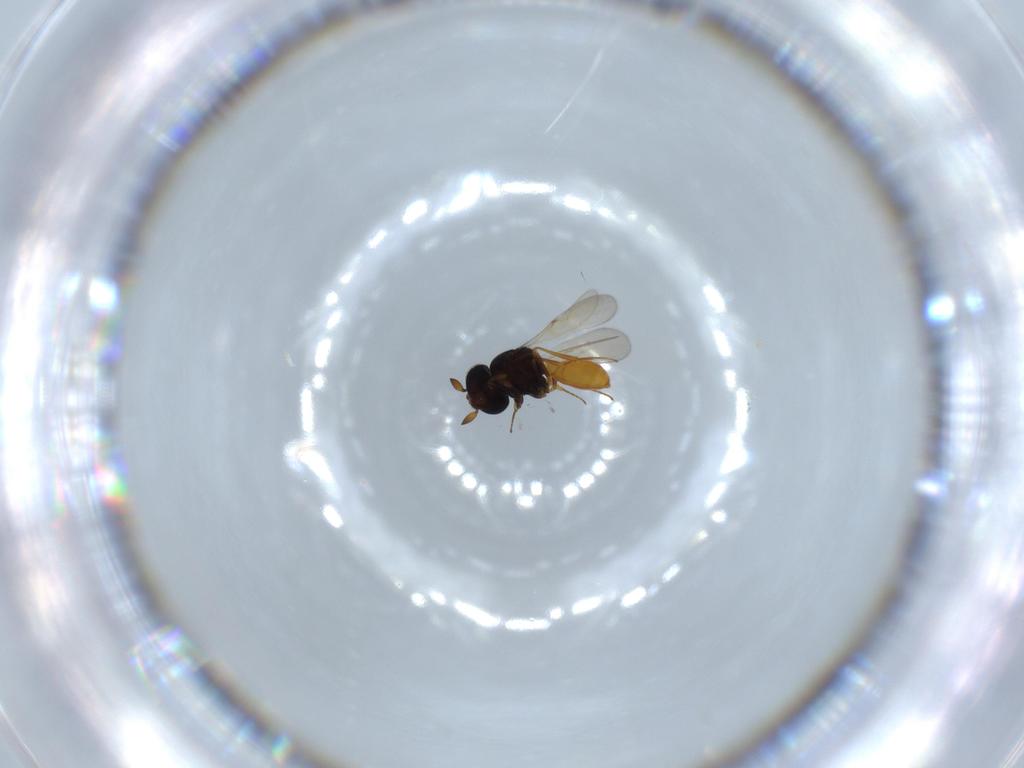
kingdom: Animalia
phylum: Arthropoda
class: Insecta
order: Hymenoptera
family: Scelionidae
